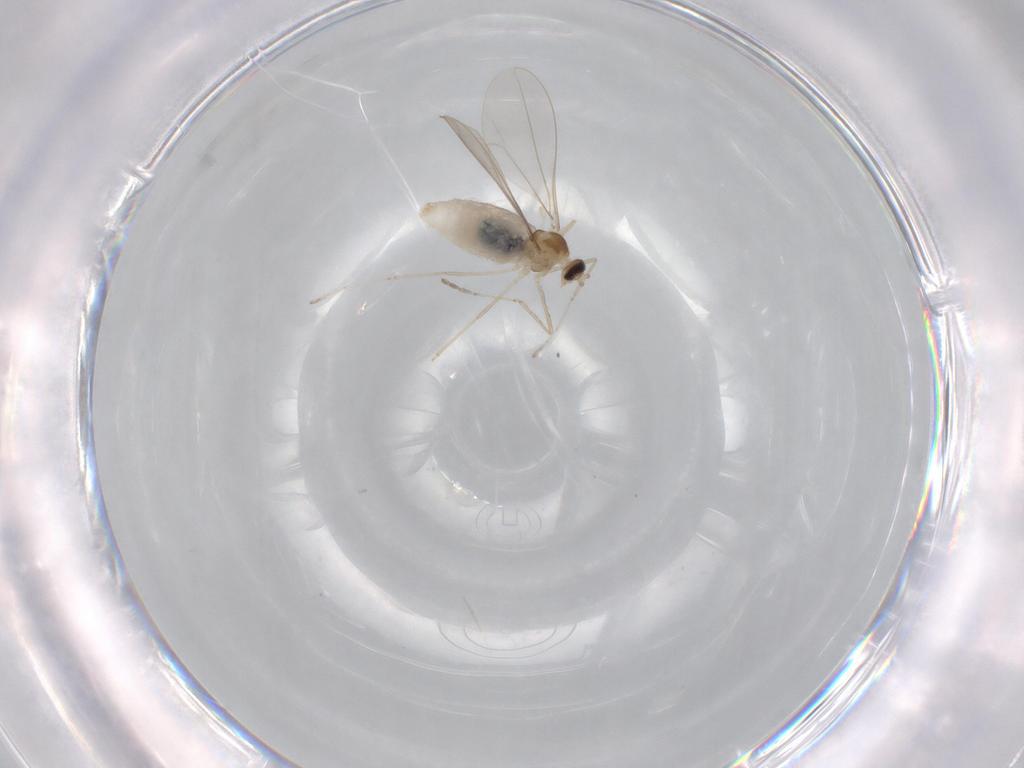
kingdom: Animalia
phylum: Arthropoda
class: Insecta
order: Diptera
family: Cecidomyiidae
